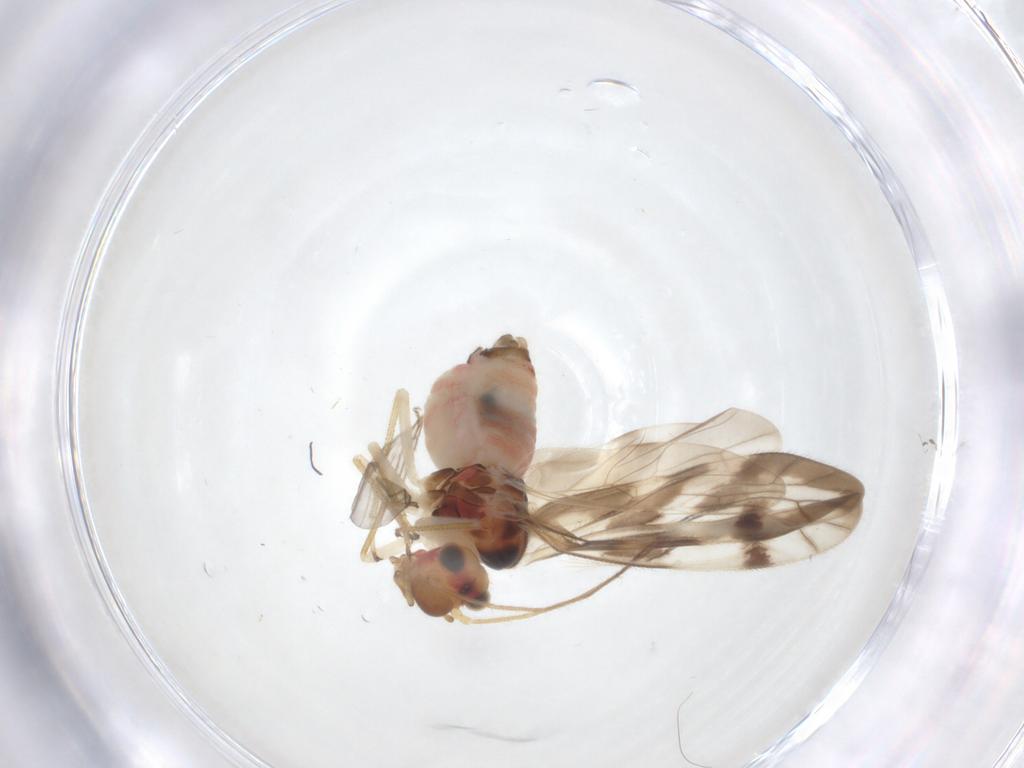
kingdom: Animalia
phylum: Arthropoda
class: Insecta
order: Psocodea
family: Caeciliusidae
